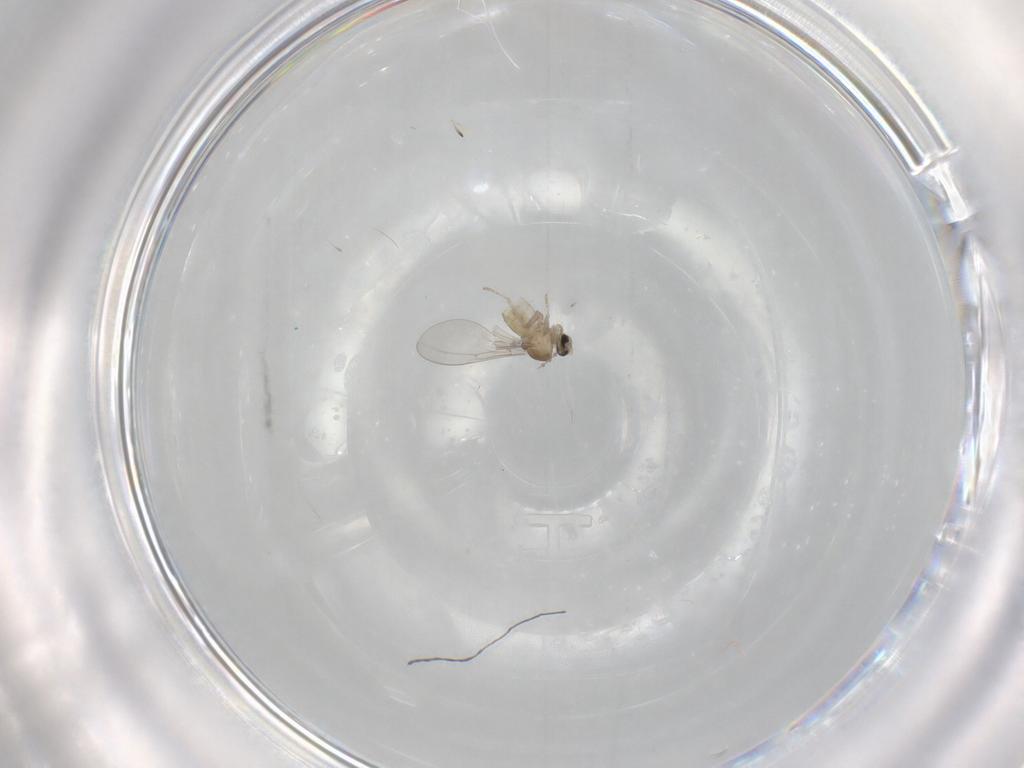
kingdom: Animalia
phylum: Arthropoda
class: Insecta
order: Diptera
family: Cecidomyiidae
